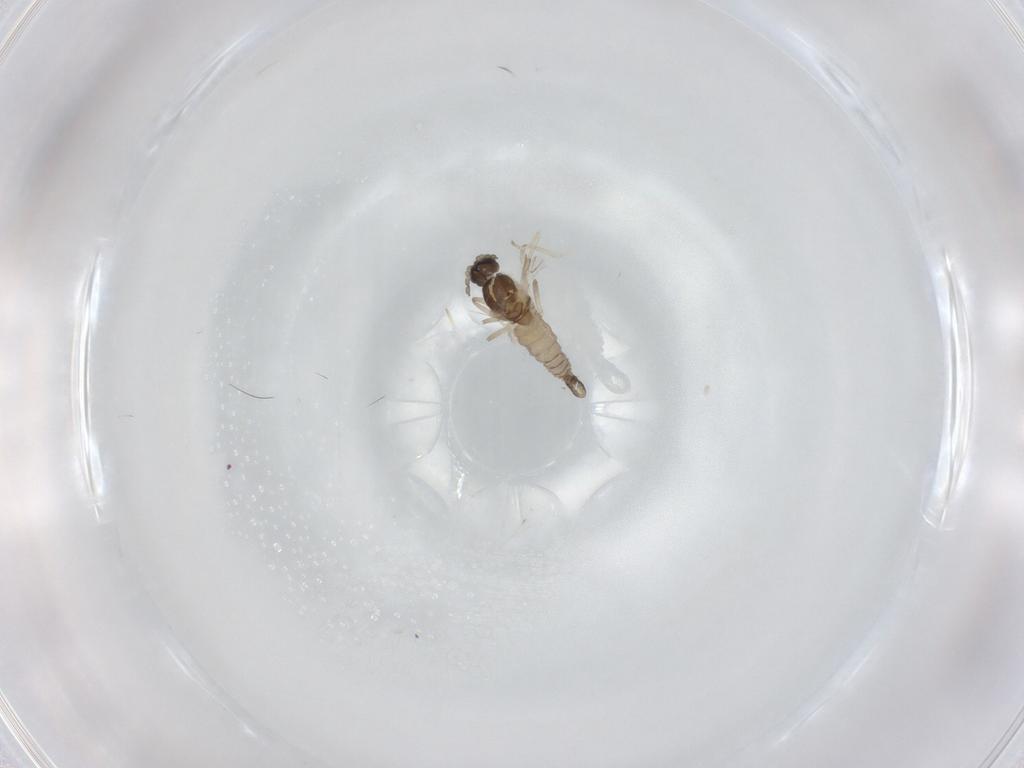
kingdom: Animalia
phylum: Arthropoda
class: Insecta
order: Diptera
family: Cecidomyiidae
